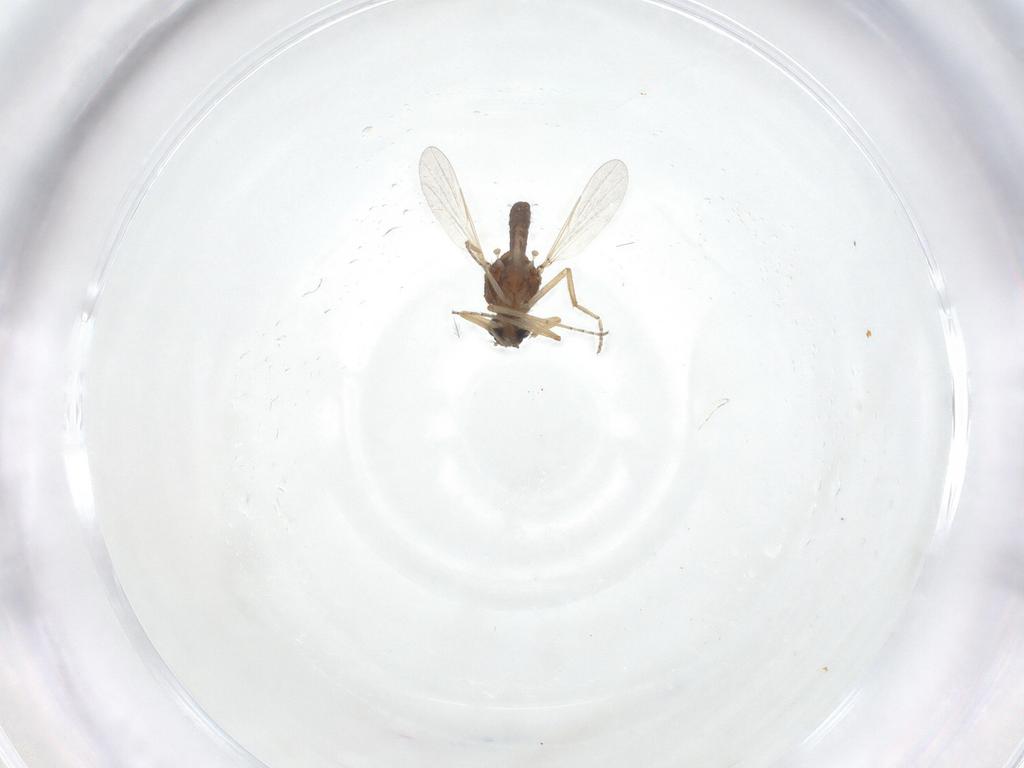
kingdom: Animalia
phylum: Arthropoda
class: Insecta
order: Diptera
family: Ceratopogonidae
